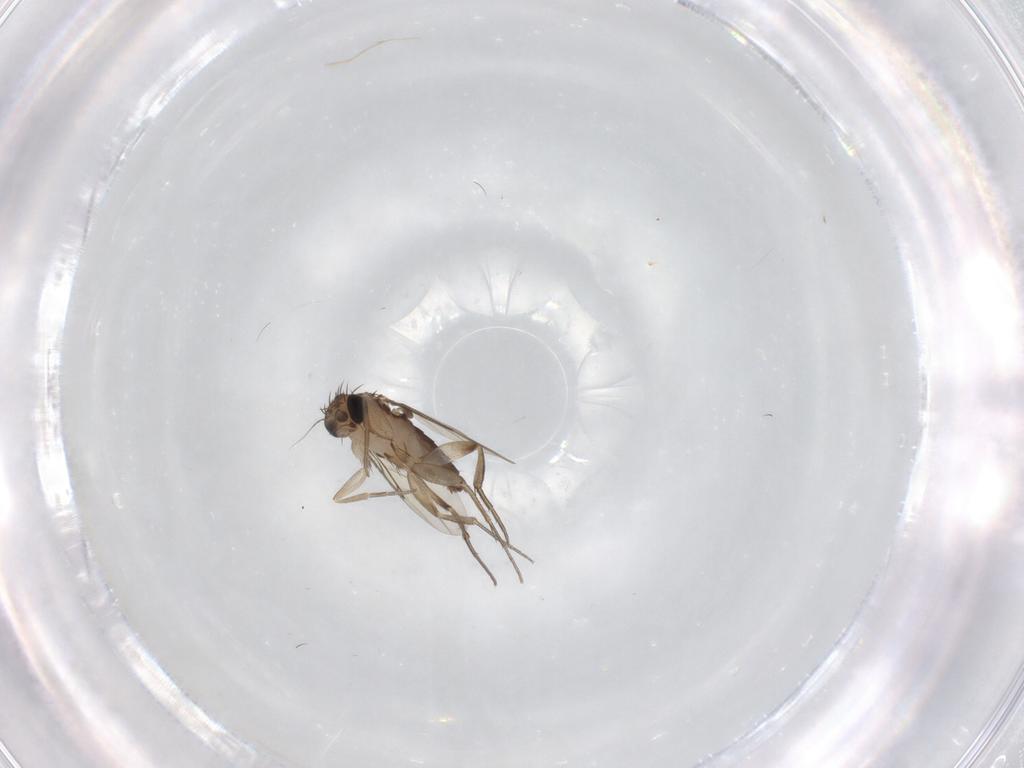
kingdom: Animalia
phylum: Arthropoda
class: Insecta
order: Diptera
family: Phoridae
